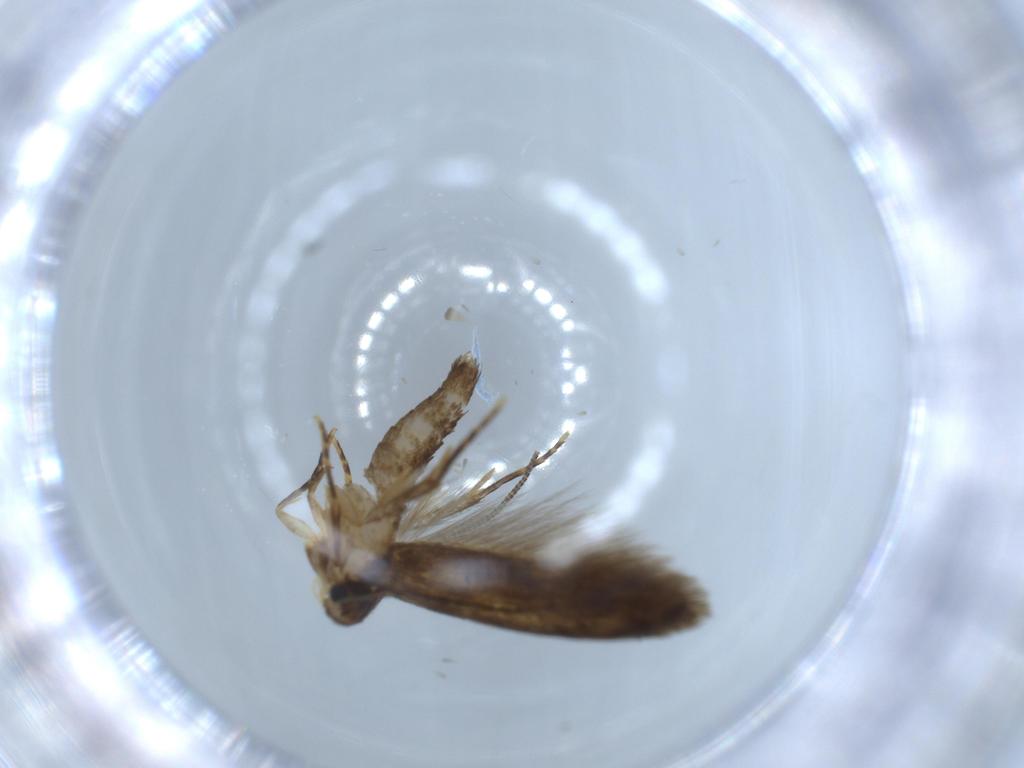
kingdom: Animalia
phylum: Arthropoda
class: Insecta
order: Lepidoptera
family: Tineidae
